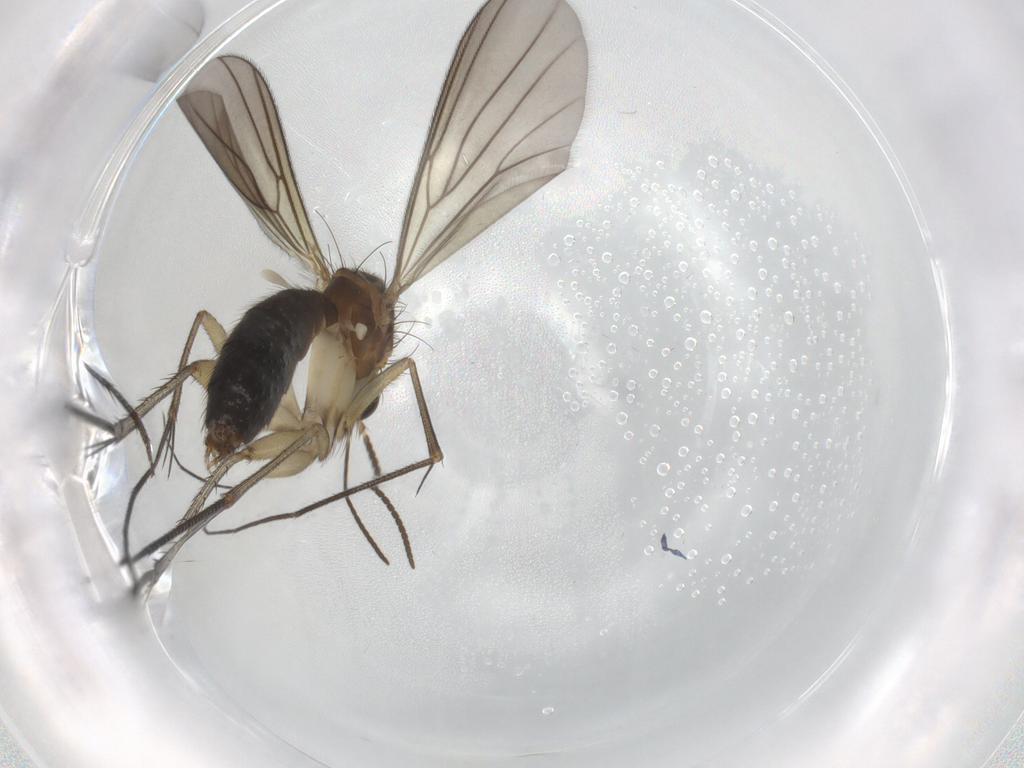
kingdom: Animalia
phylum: Arthropoda
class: Insecta
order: Diptera
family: Mycetophilidae
